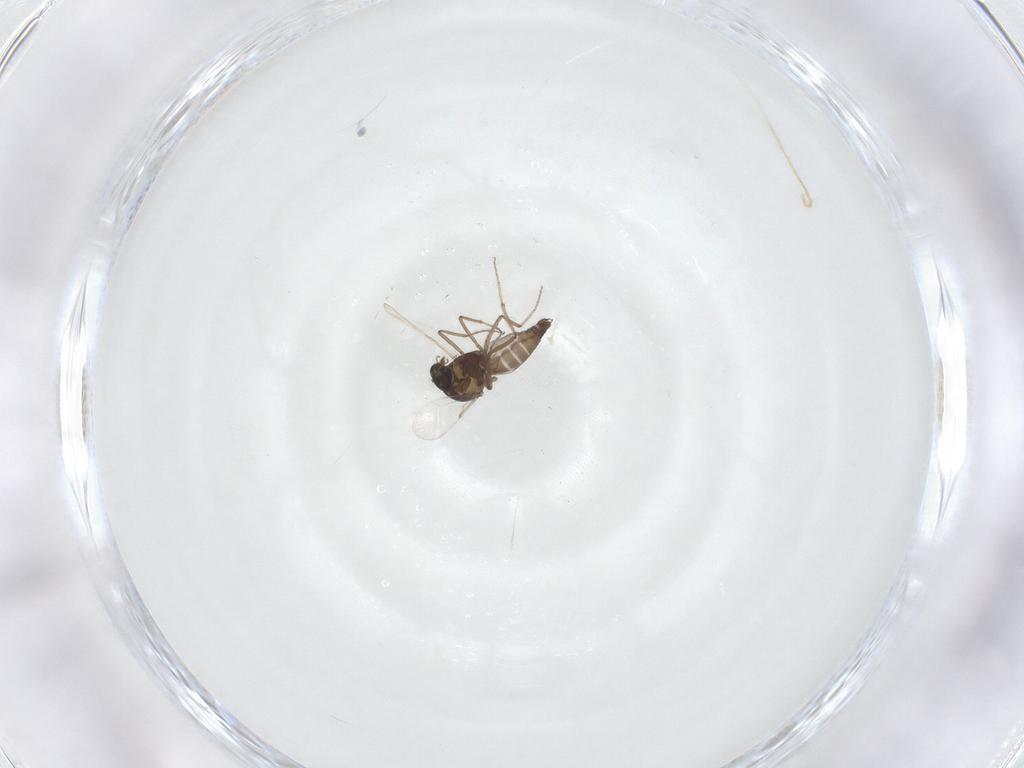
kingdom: Animalia
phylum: Arthropoda
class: Insecta
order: Diptera
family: Ceratopogonidae
